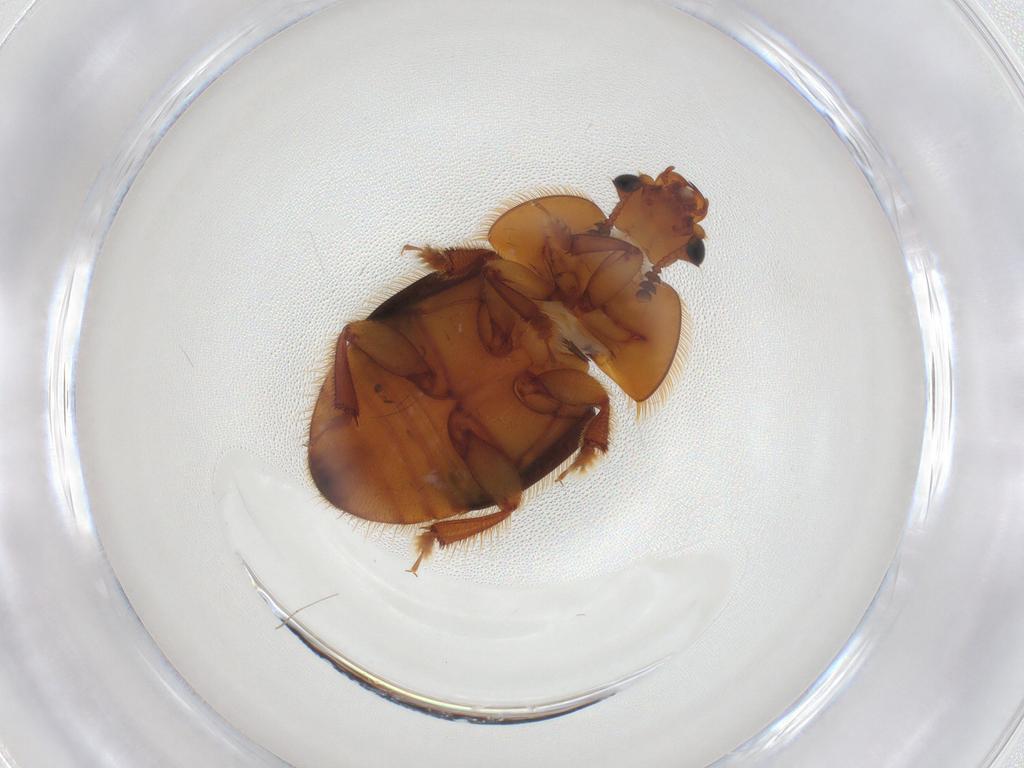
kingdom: Animalia
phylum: Arthropoda
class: Insecta
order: Coleoptera
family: Nitidulidae
